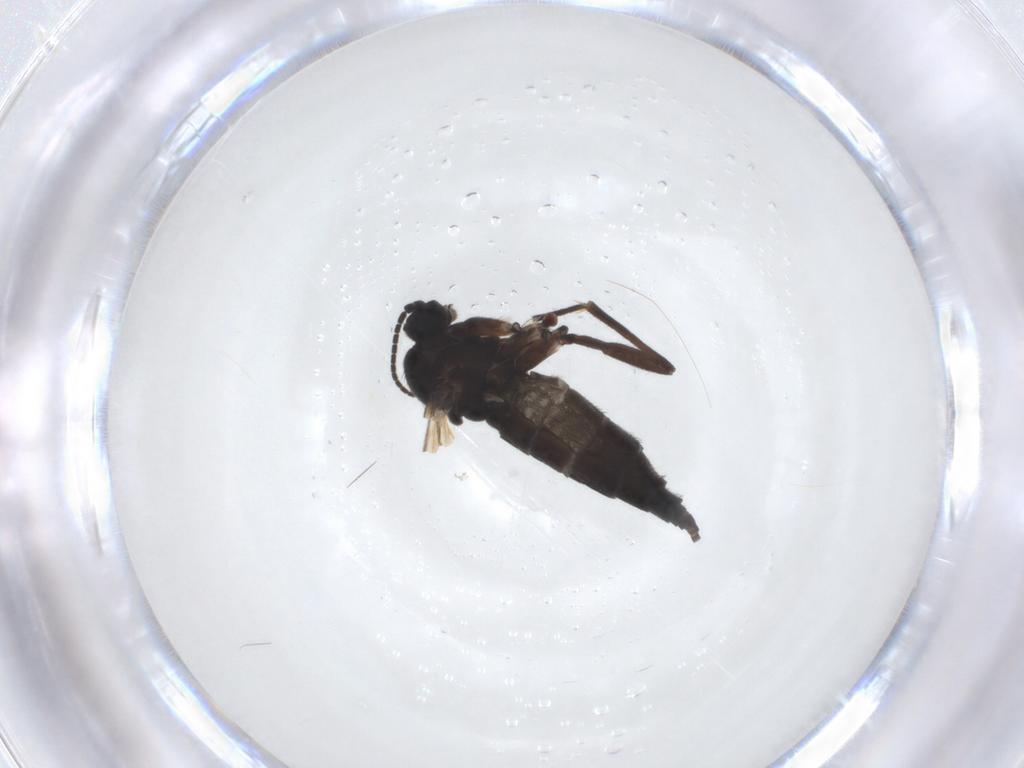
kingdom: Animalia
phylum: Arthropoda
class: Insecta
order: Diptera
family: Sciaridae
